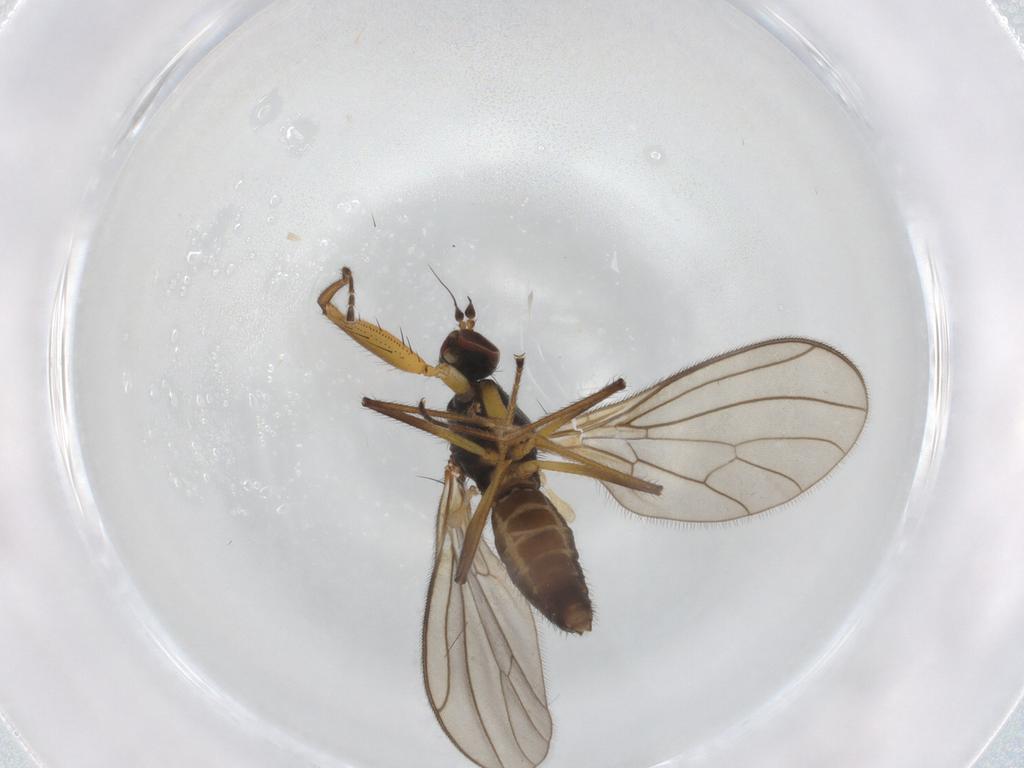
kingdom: Animalia
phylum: Arthropoda
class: Insecta
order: Diptera
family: Empididae
